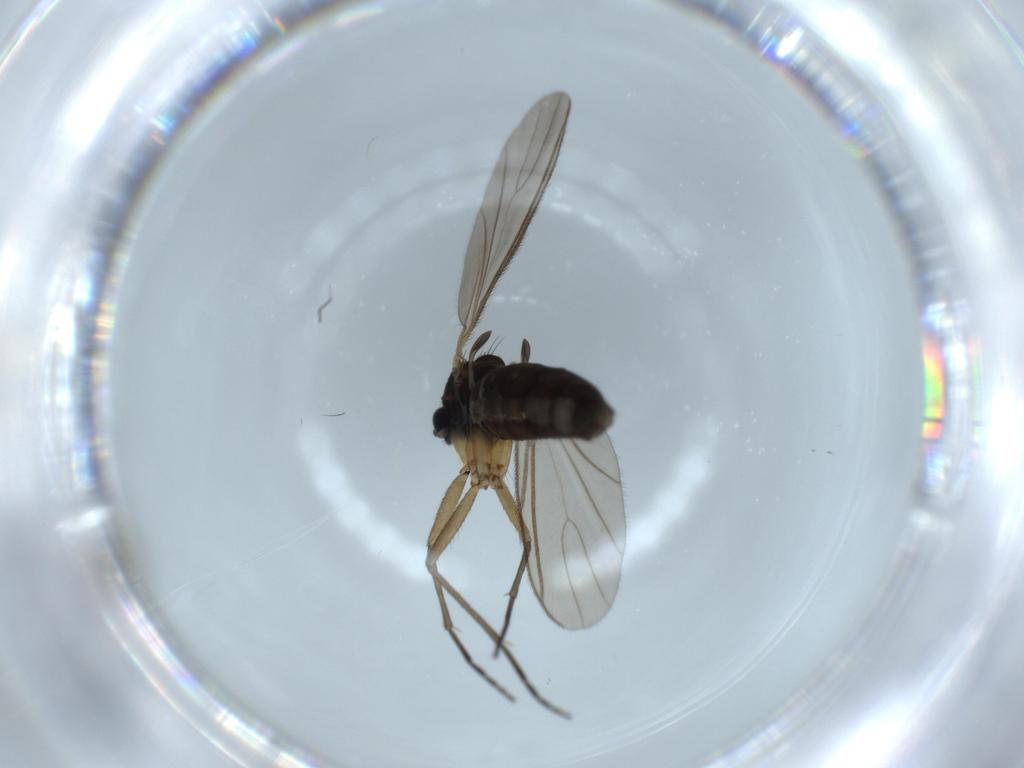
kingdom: Animalia
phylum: Arthropoda
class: Insecta
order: Diptera
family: Sciaridae
